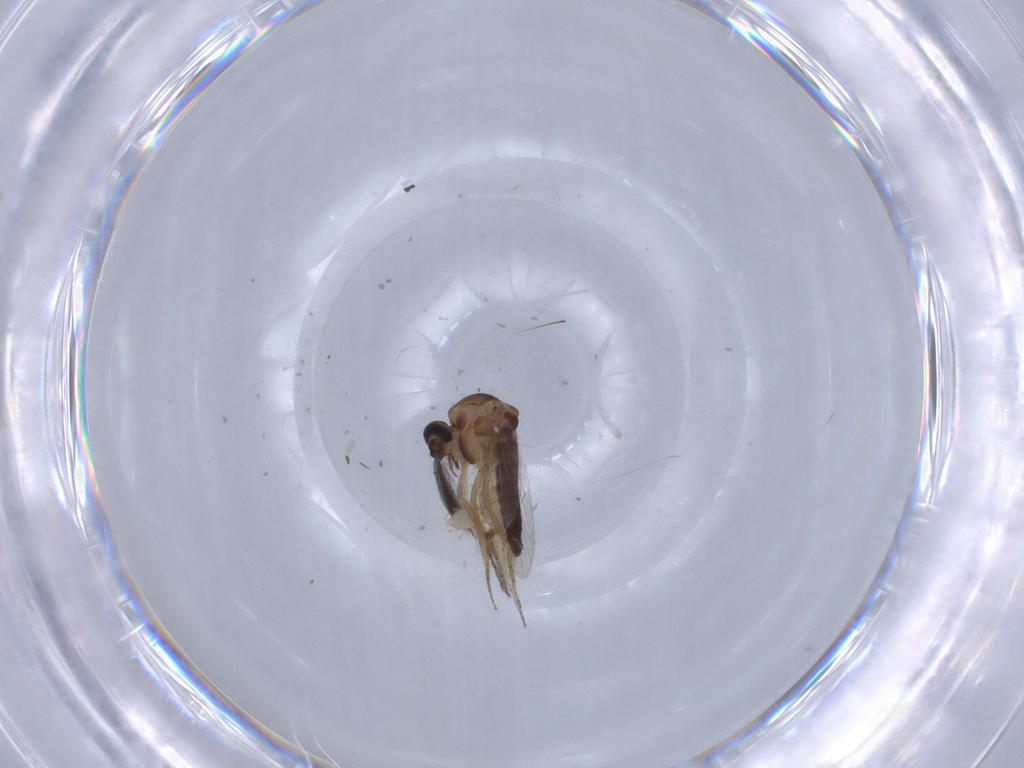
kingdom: Animalia
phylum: Arthropoda
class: Insecta
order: Diptera
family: Ceratopogonidae
